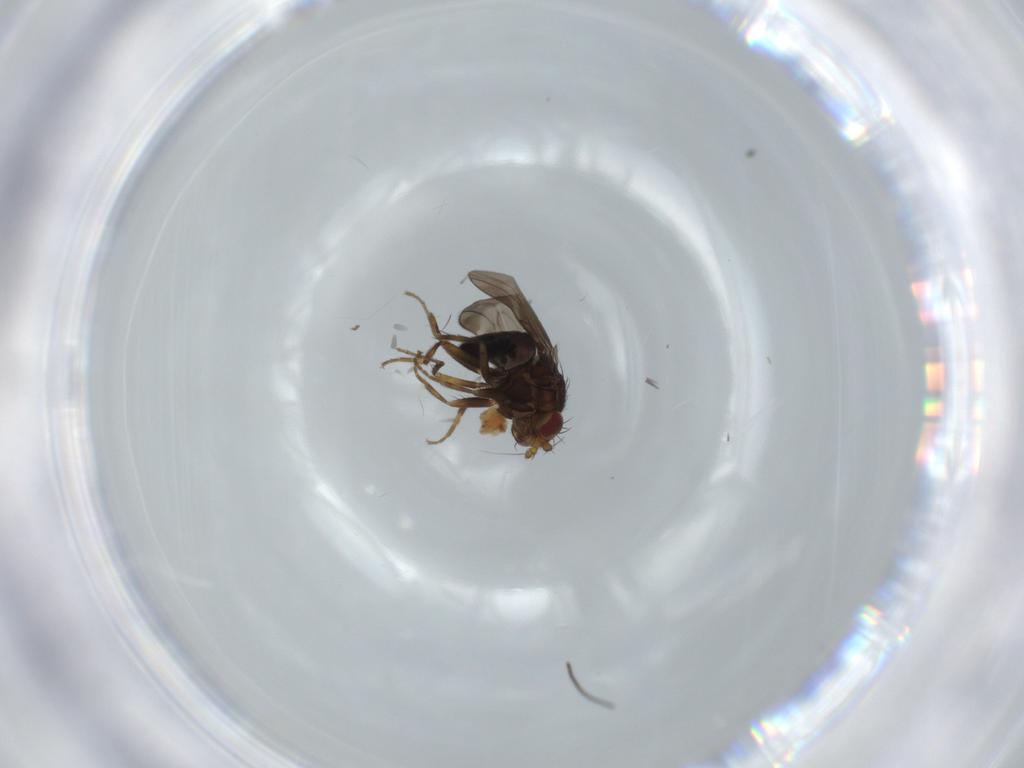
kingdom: Animalia
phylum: Arthropoda
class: Insecta
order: Diptera
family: Sphaeroceridae
